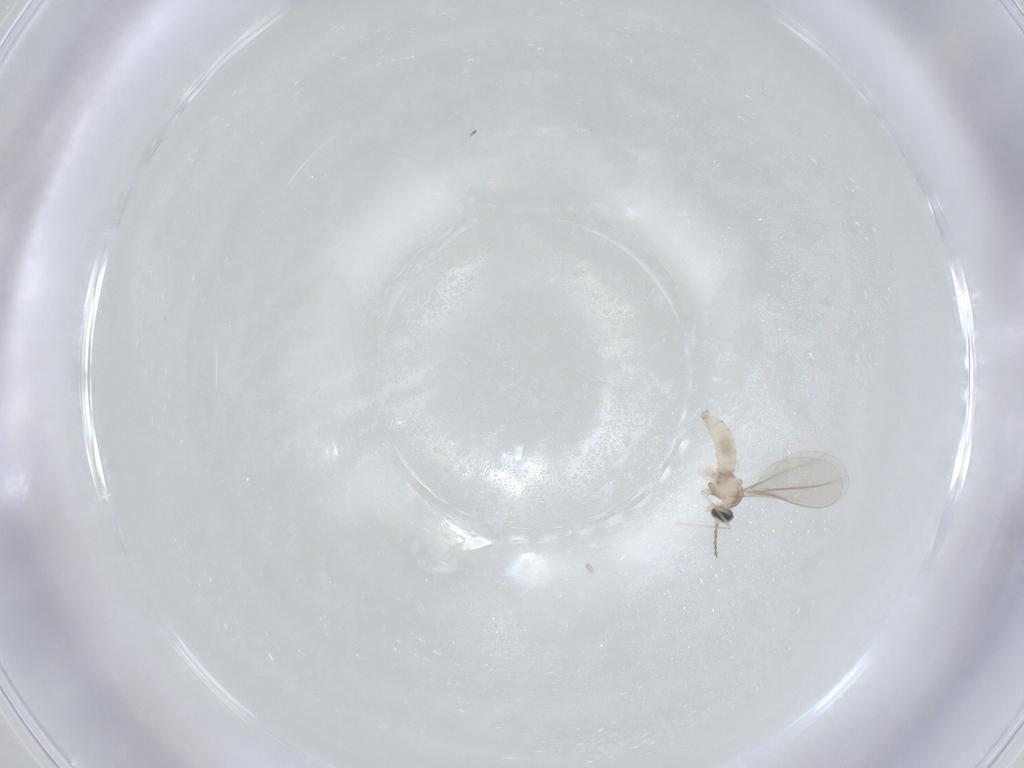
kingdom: Animalia
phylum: Arthropoda
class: Insecta
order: Diptera
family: Cecidomyiidae
